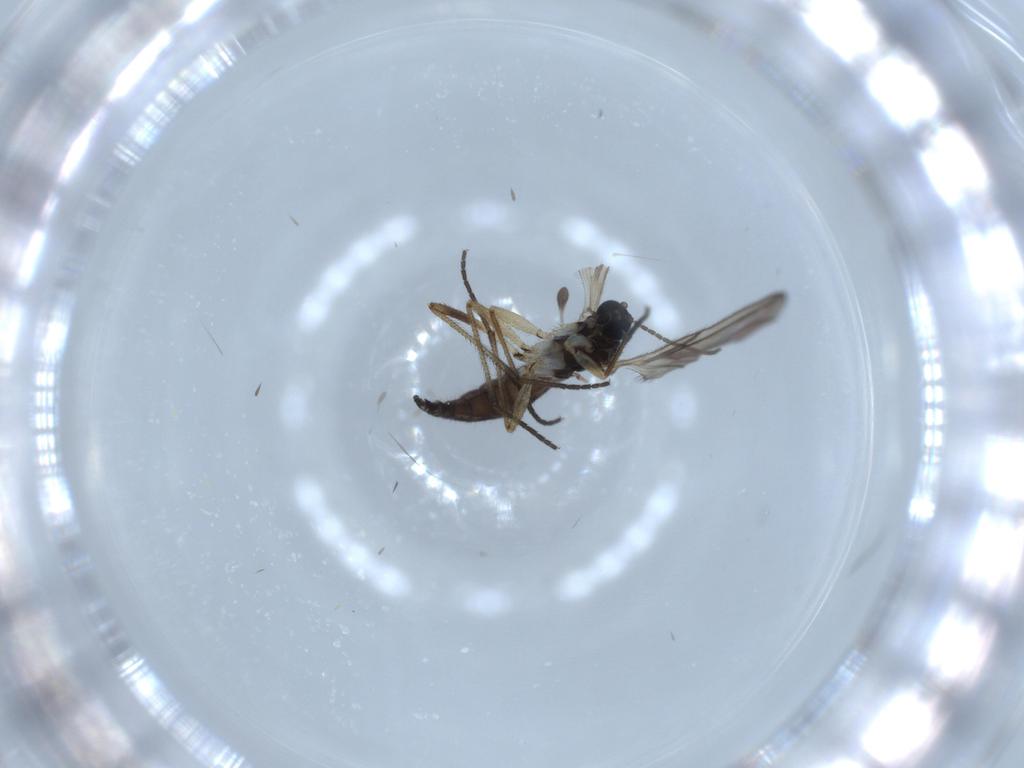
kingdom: Animalia
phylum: Arthropoda
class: Insecta
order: Diptera
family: Sciaridae
